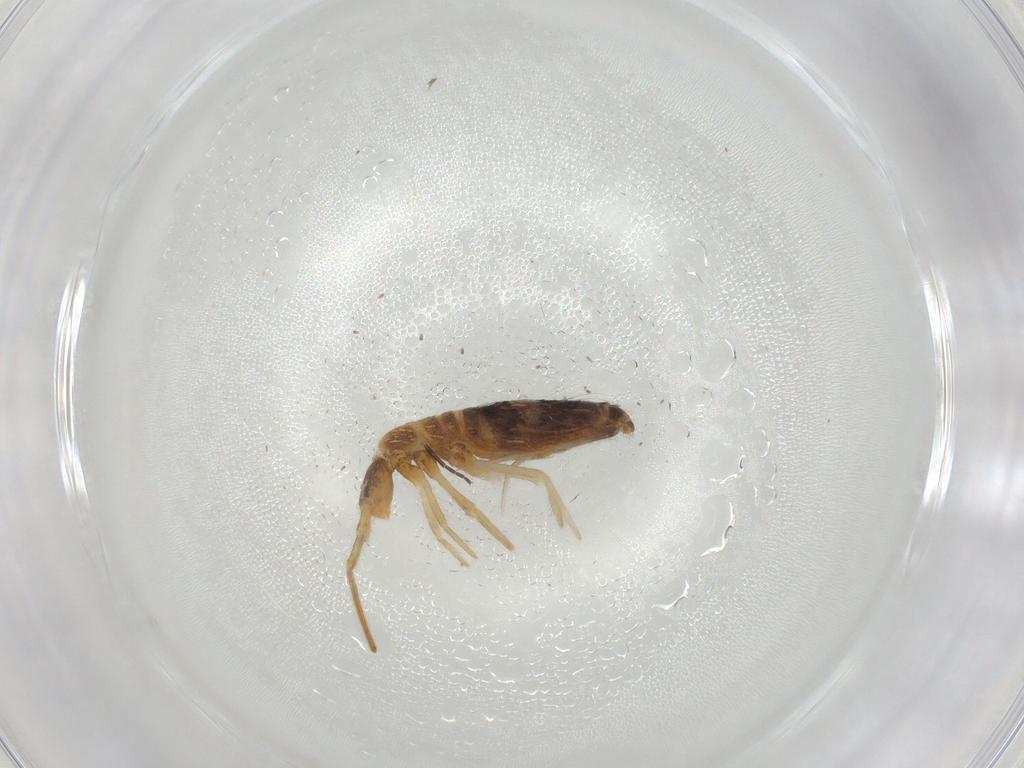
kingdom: Animalia
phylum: Arthropoda
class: Collembola
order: Entomobryomorpha
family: Entomobryidae
